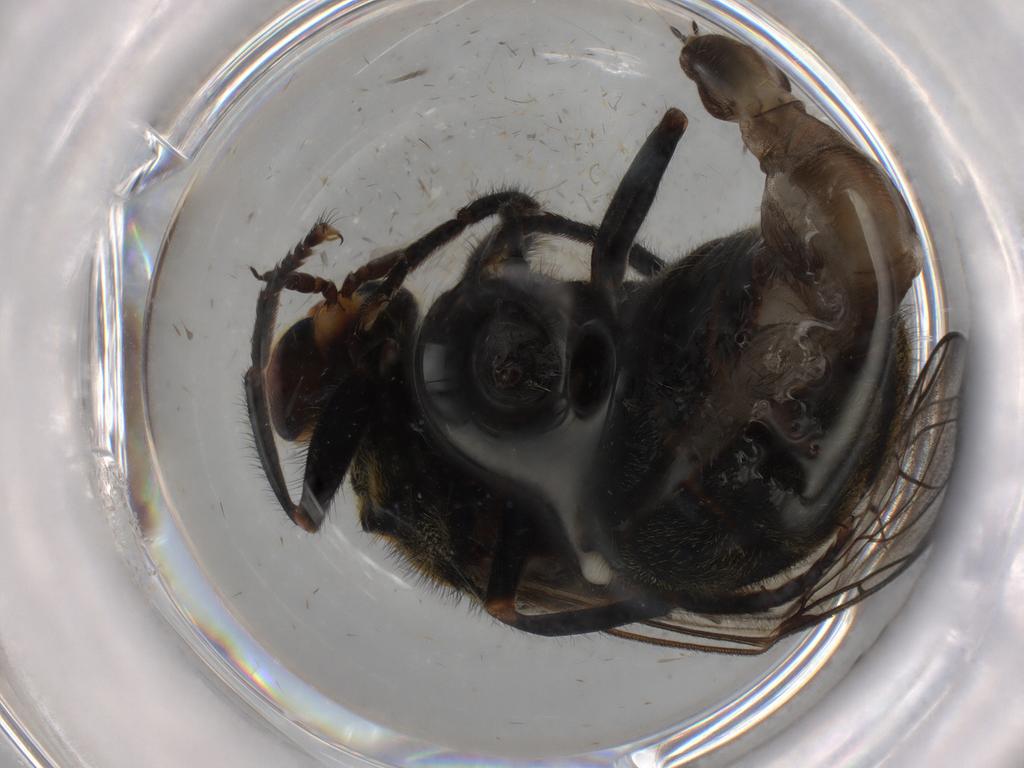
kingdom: Animalia
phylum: Arthropoda
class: Insecta
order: Diptera
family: Stratiomyidae
